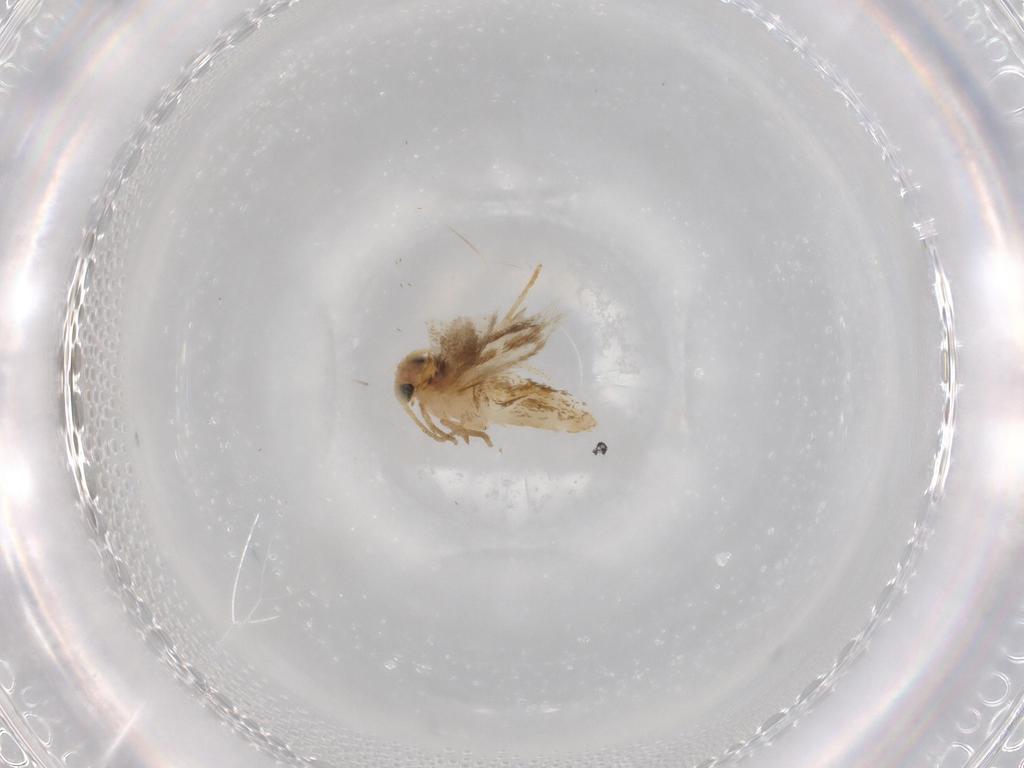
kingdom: Animalia
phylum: Arthropoda
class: Insecta
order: Lepidoptera
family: Nepticulidae
